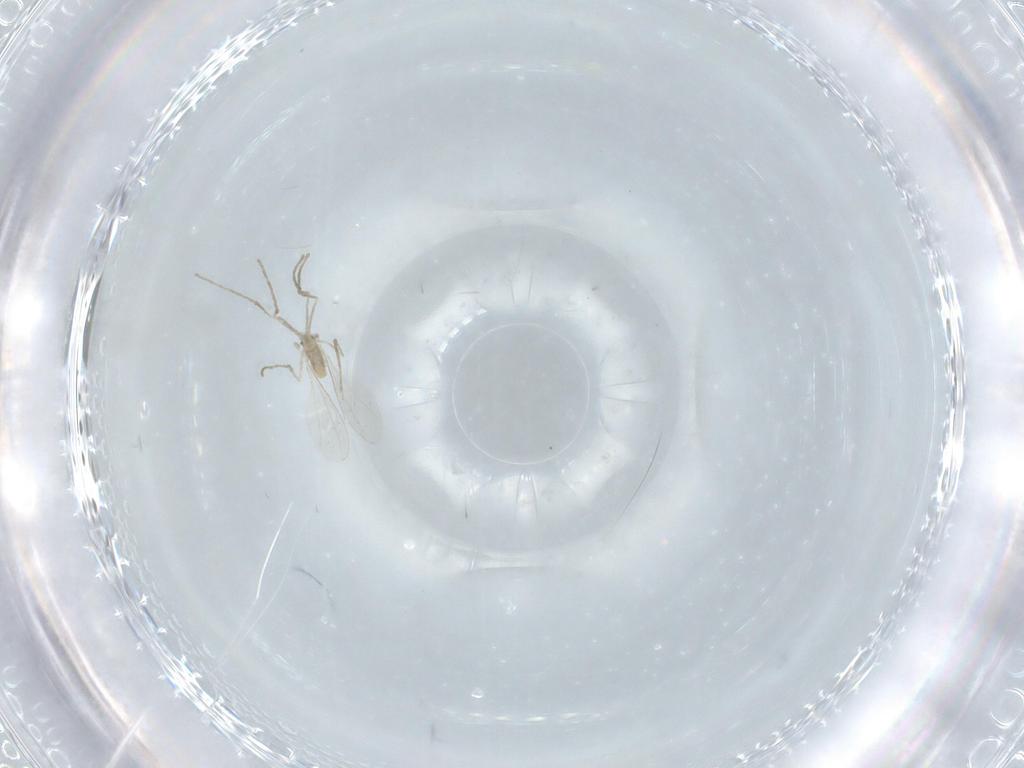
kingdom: Animalia
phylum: Arthropoda
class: Insecta
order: Diptera
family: Cecidomyiidae
